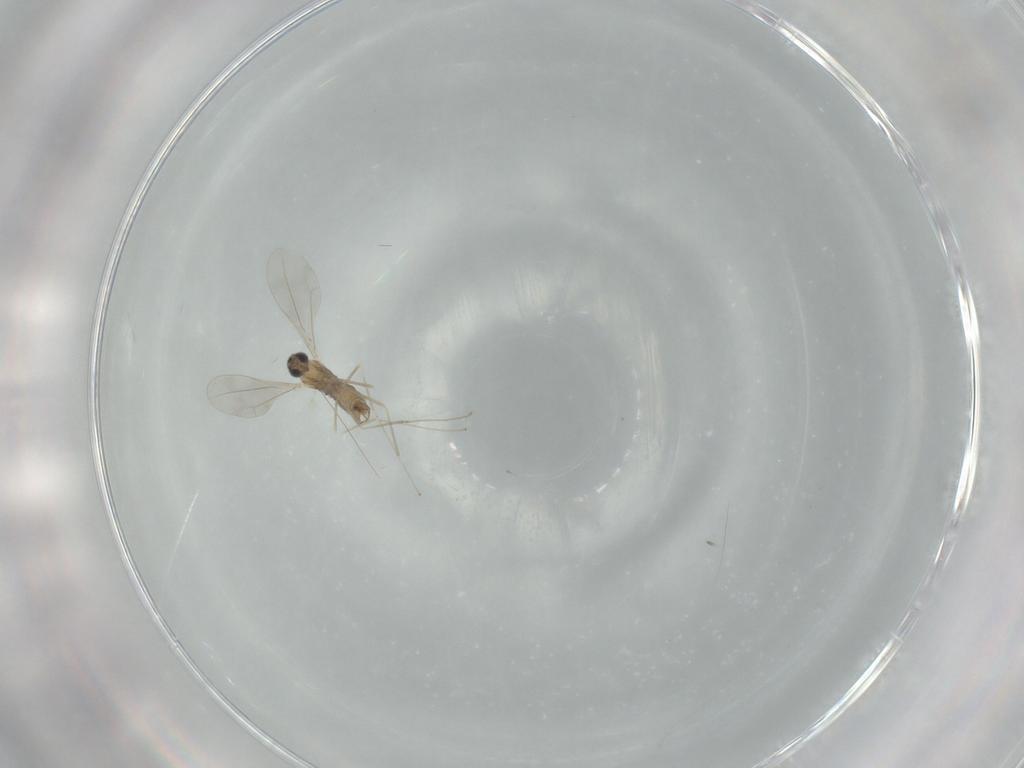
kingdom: Animalia
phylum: Arthropoda
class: Insecta
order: Diptera
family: Cecidomyiidae
